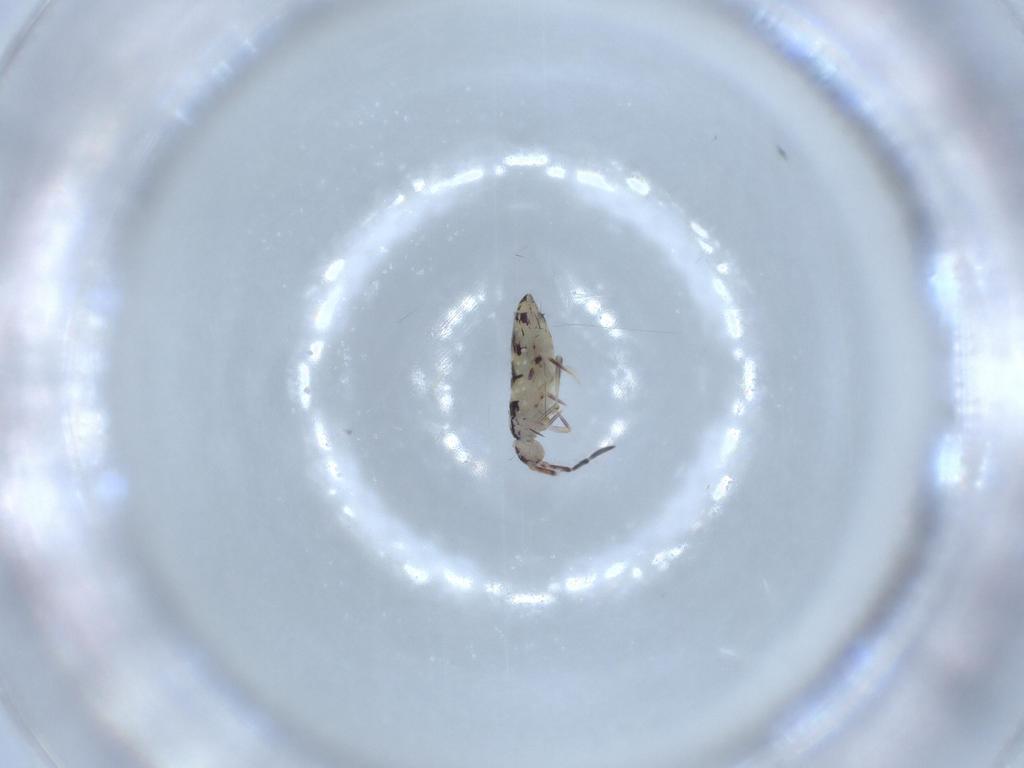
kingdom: Animalia
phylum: Arthropoda
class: Collembola
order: Entomobryomorpha
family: Entomobryidae
